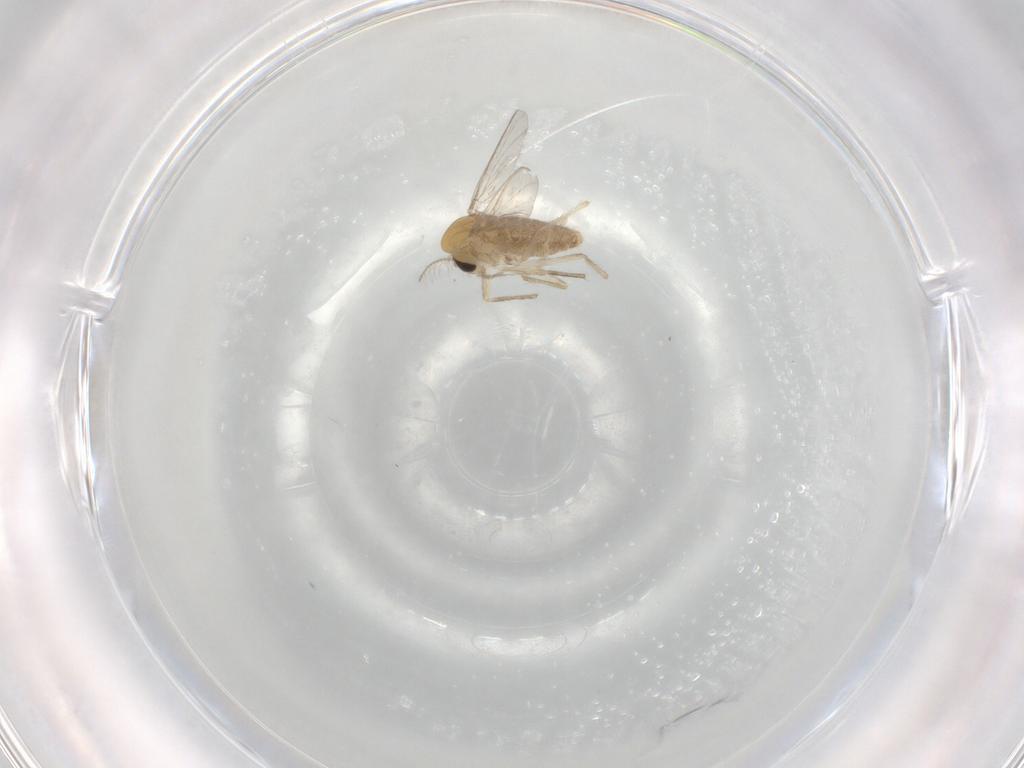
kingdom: Animalia
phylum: Arthropoda
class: Insecta
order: Diptera
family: Chironomidae
